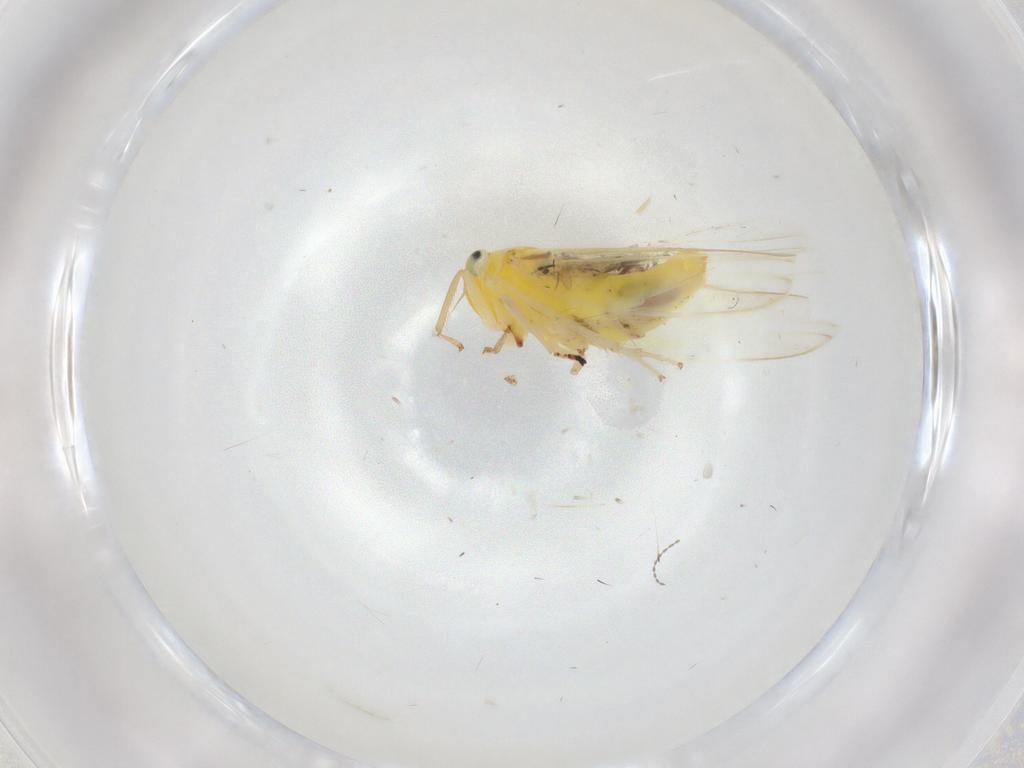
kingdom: Animalia
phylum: Arthropoda
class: Insecta
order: Hemiptera
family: Cicadellidae
